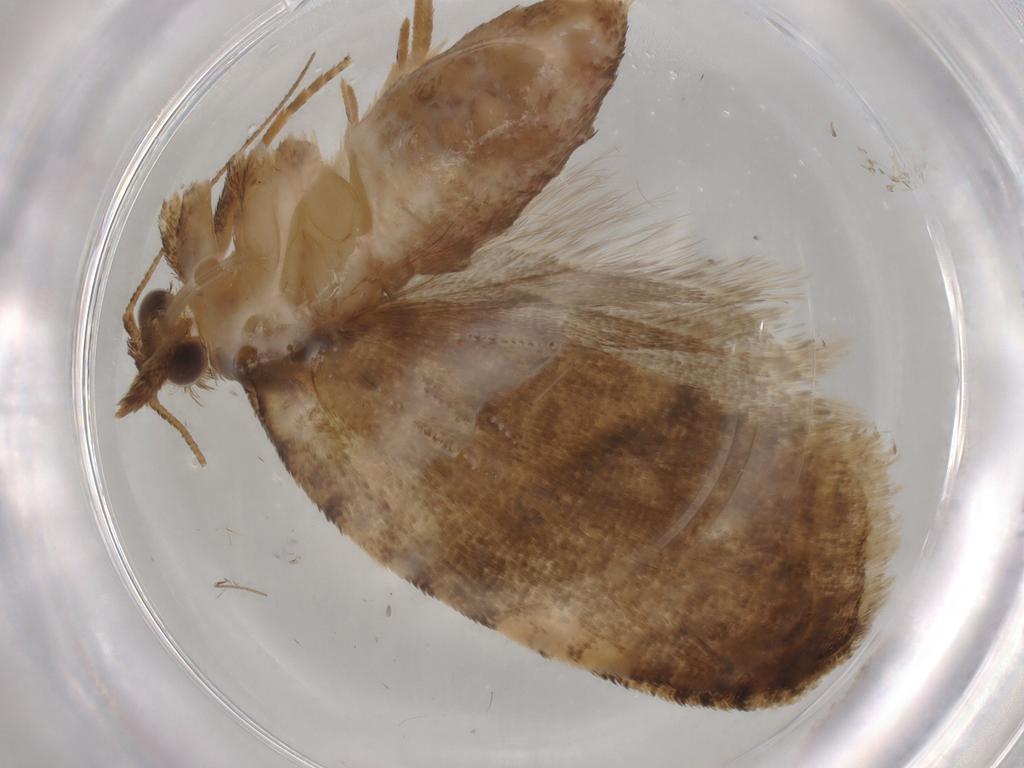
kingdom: Animalia
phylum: Arthropoda
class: Insecta
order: Lepidoptera
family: Tortricidae
